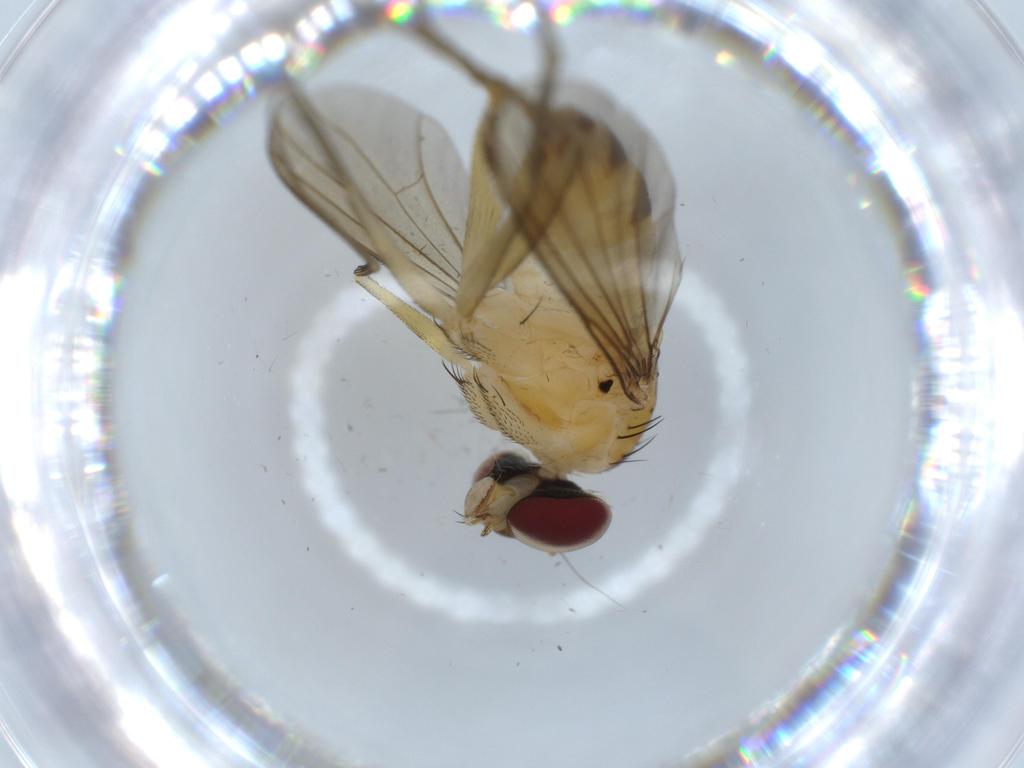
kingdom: Animalia
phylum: Arthropoda
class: Insecta
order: Diptera
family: Dolichopodidae
